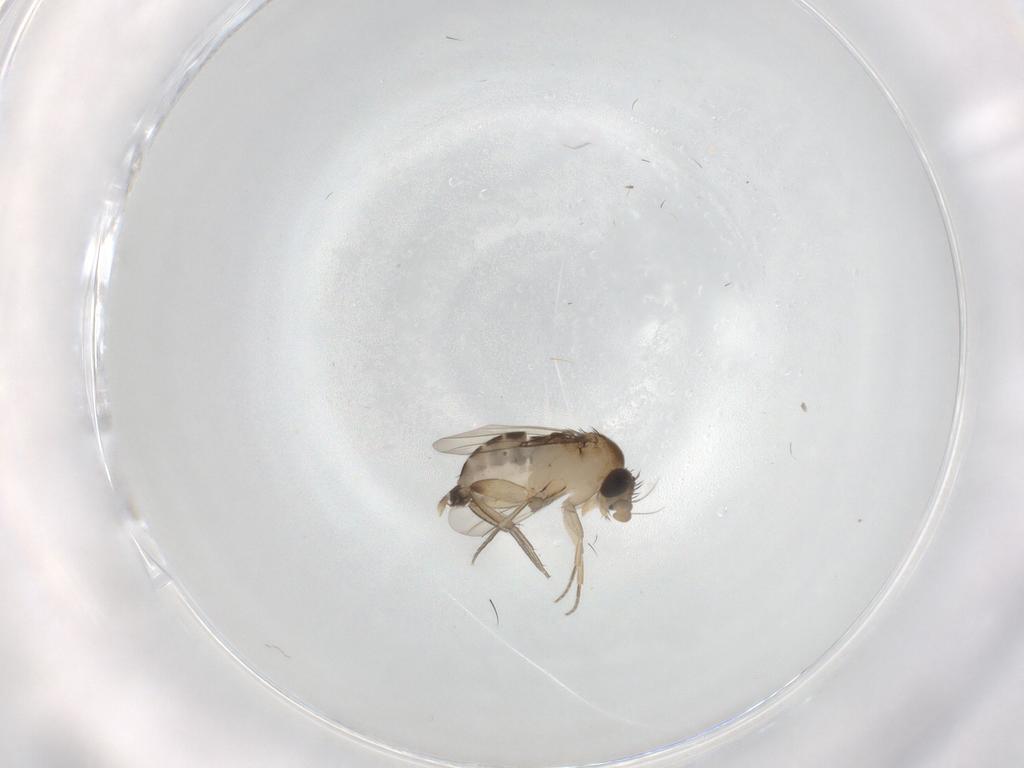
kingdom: Animalia
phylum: Arthropoda
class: Insecta
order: Diptera
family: Phoridae
